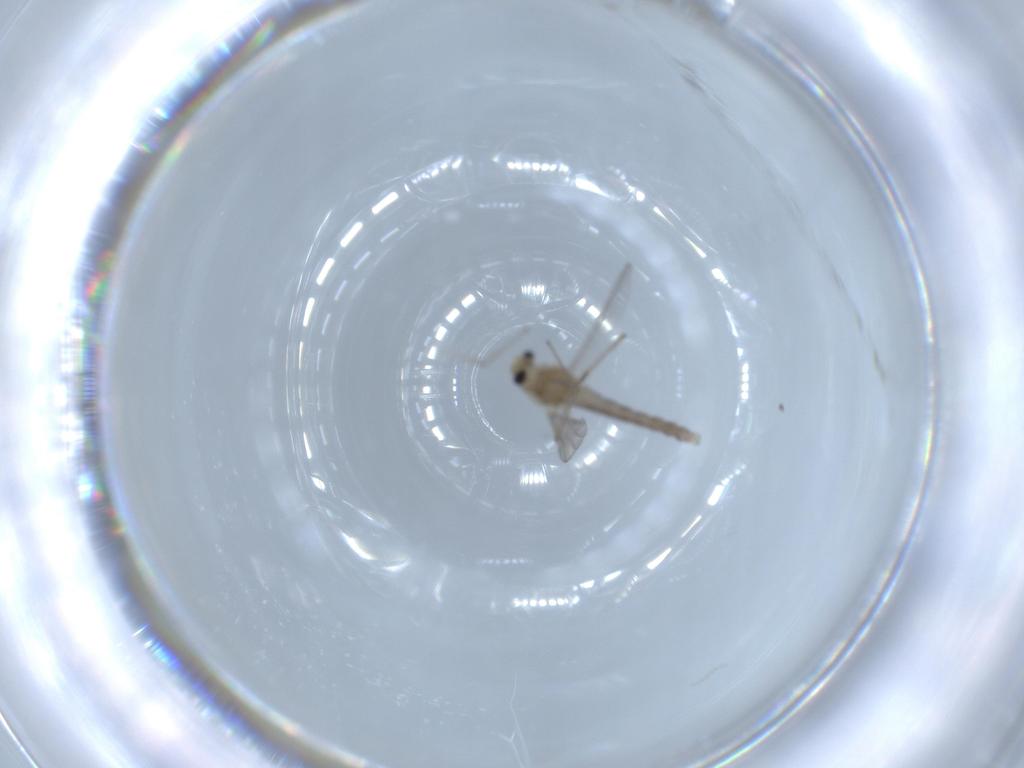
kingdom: Animalia
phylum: Arthropoda
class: Insecta
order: Diptera
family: Chironomidae
